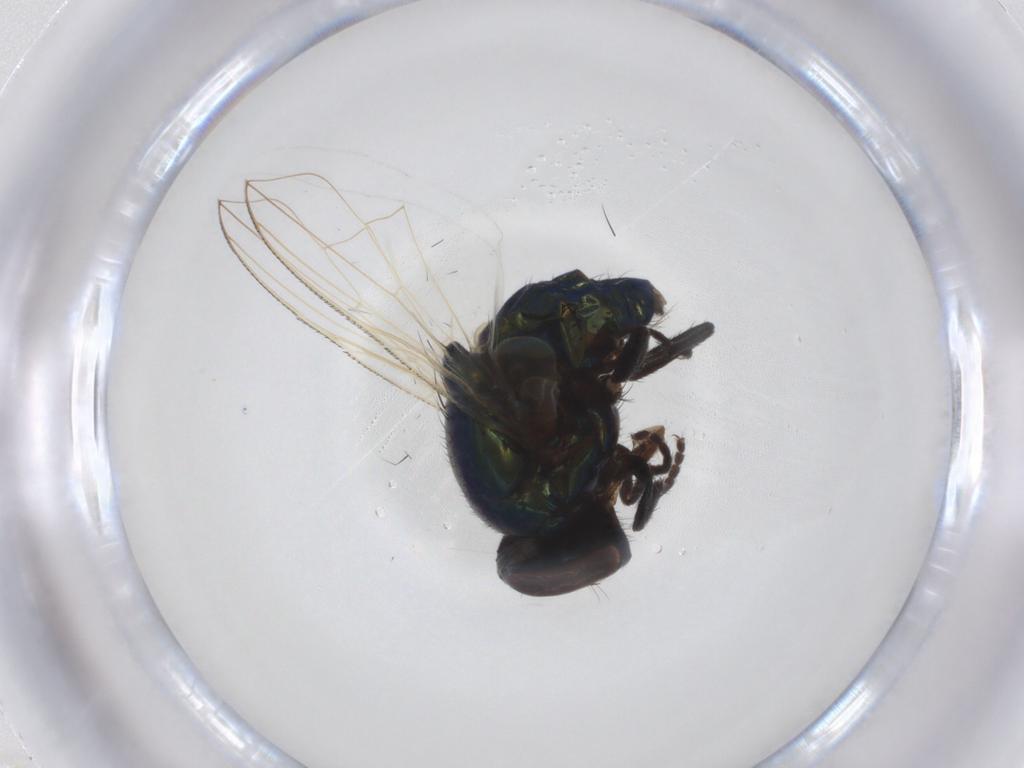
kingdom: Animalia
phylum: Arthropoda
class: Insecta
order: Diptera
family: Muscidae
